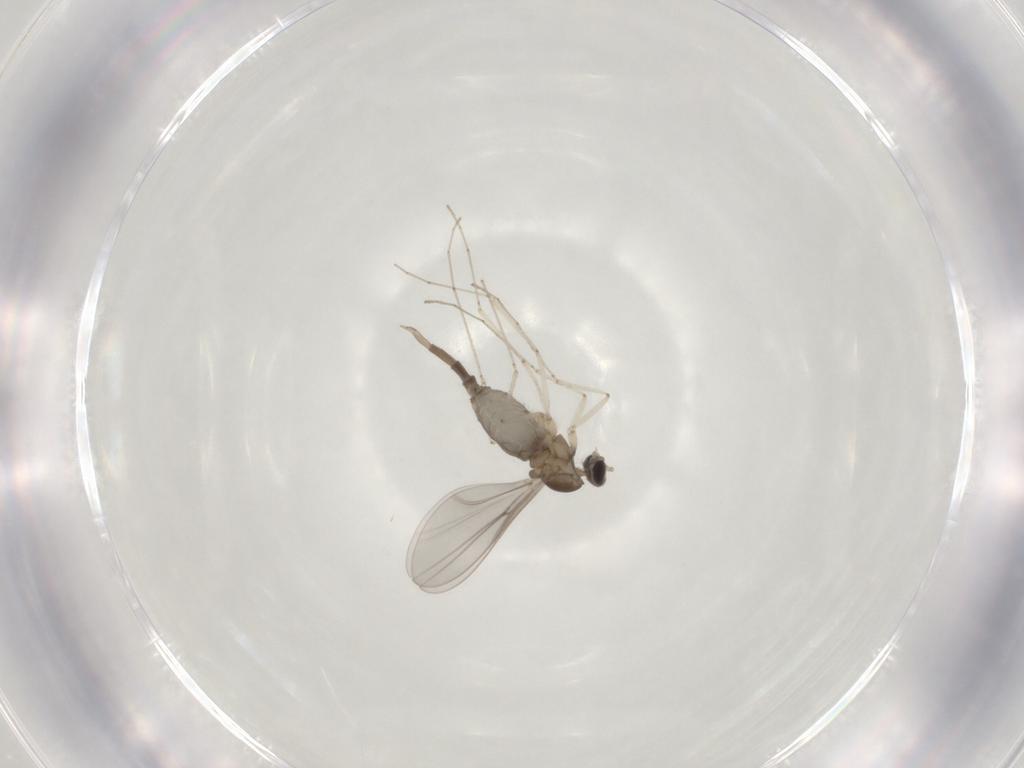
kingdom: Animalia
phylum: Arthropoda
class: Insecta
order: Diptera
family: Cecidomyiidae
